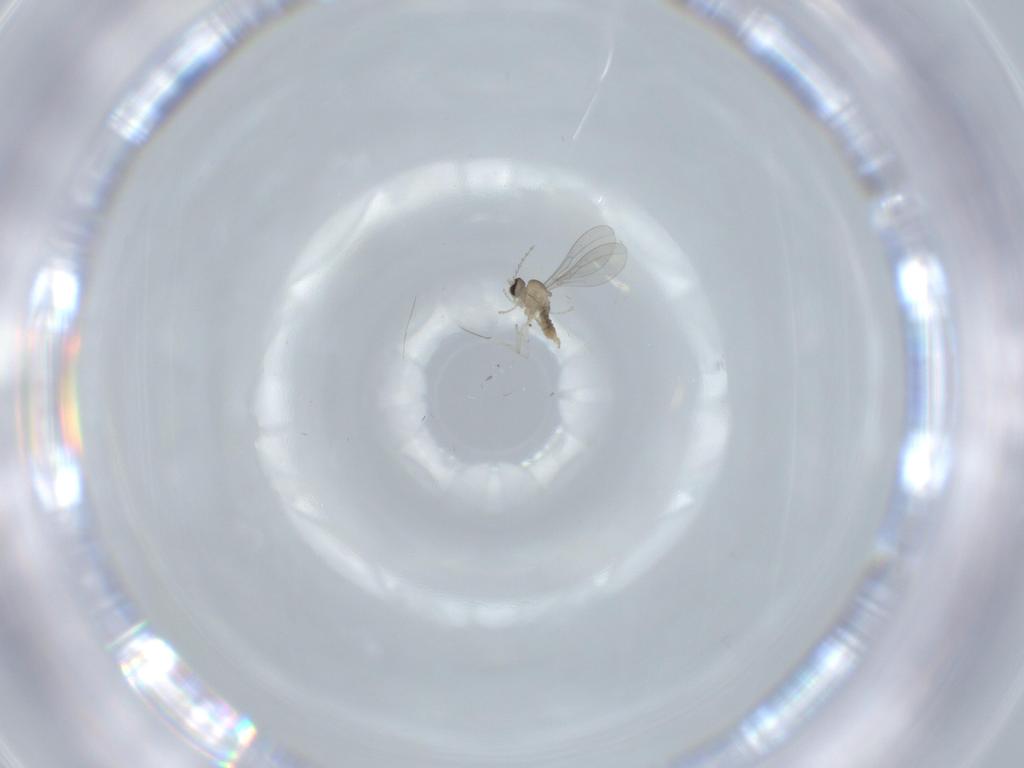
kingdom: Animalia
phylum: Arthropoda
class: Insecta
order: Diptera
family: Cecidomyiidae
